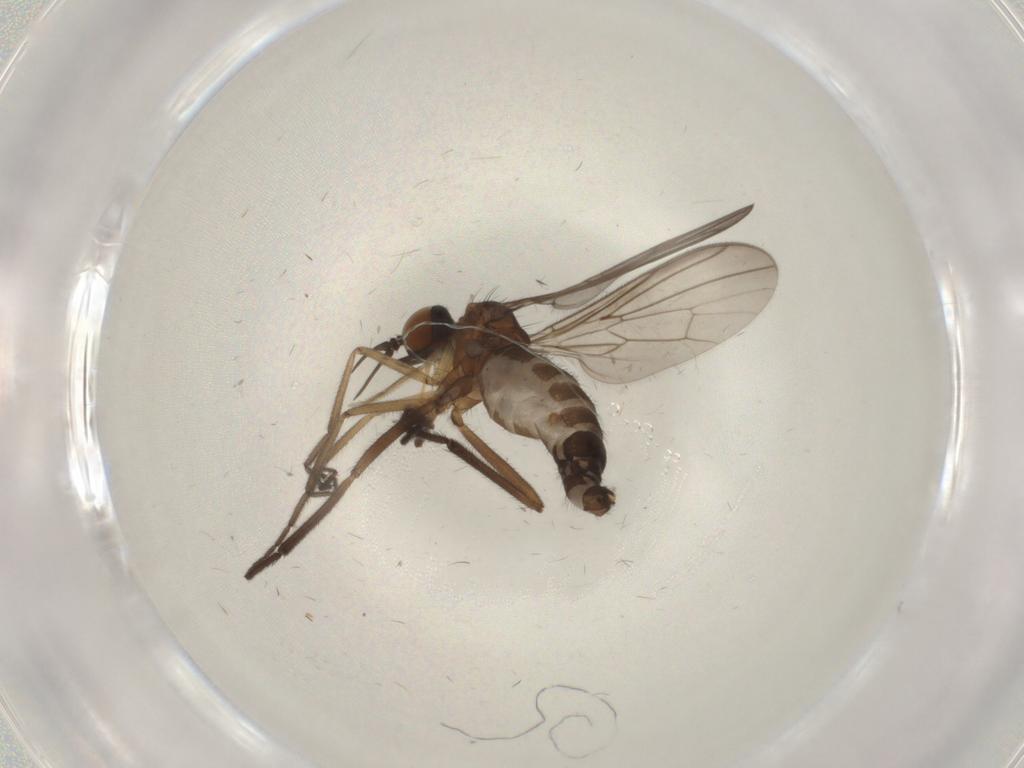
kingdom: Animalia
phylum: Arthropoda
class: Insecta
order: Diptera
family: Empididae
